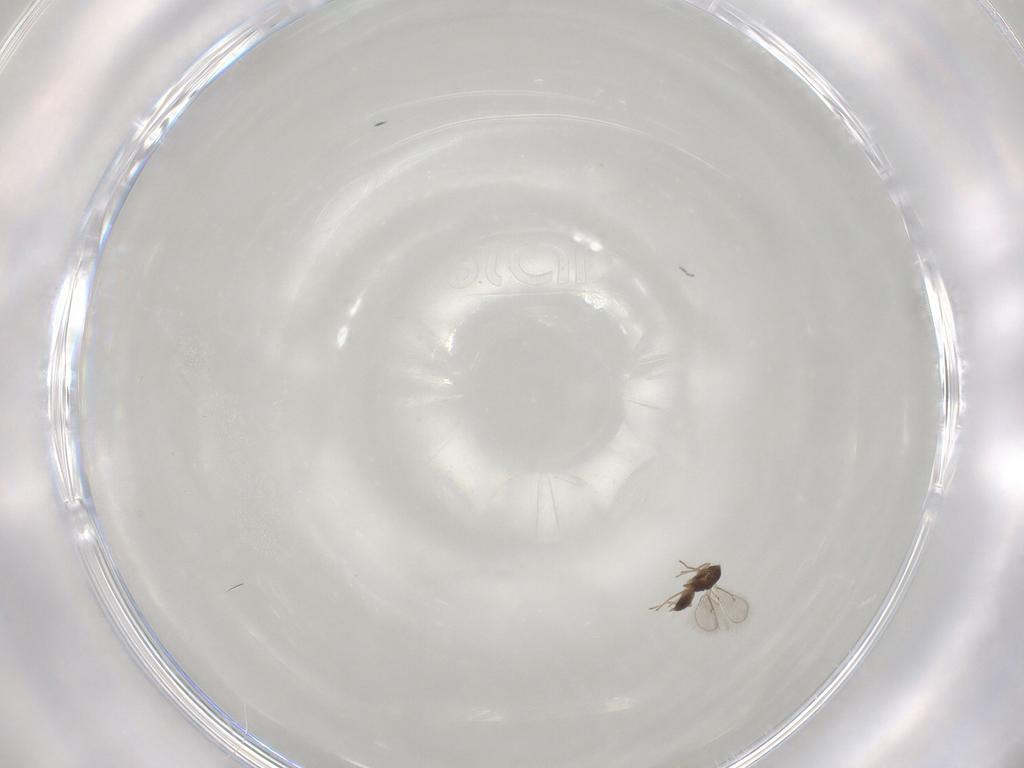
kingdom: Animalia
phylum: Arthropoda
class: Insecta
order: Hymenoptera
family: Eulophidae
